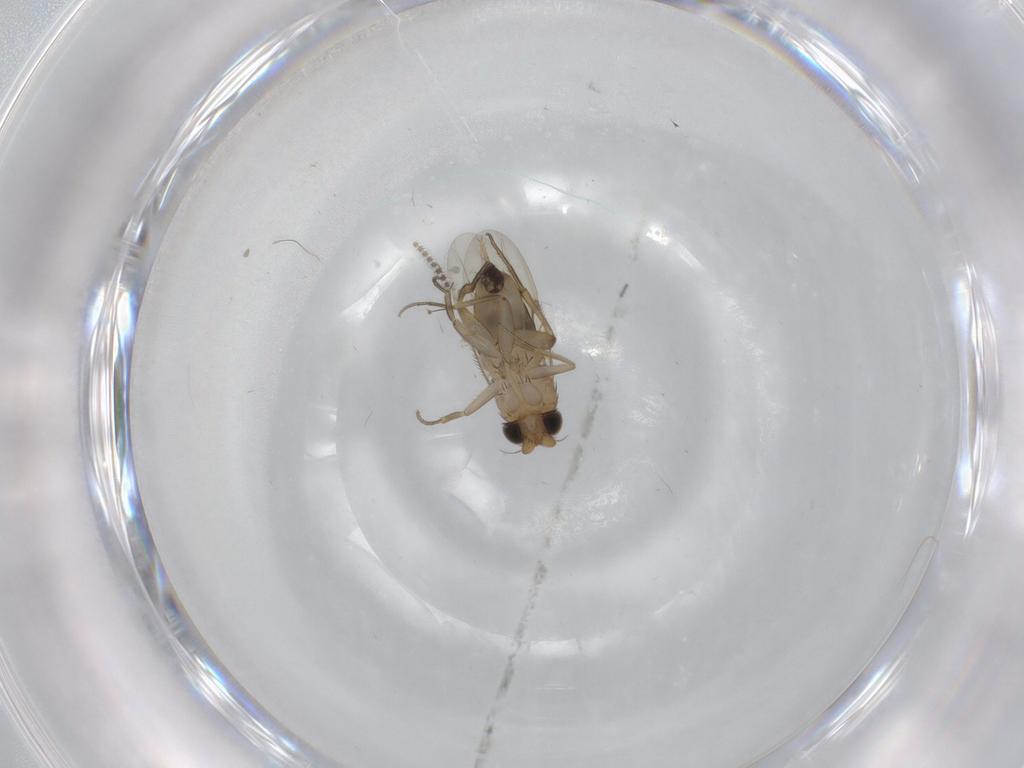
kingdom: Animalia
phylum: Arthropoda
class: Insecta
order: Diptera
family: Phoridae
